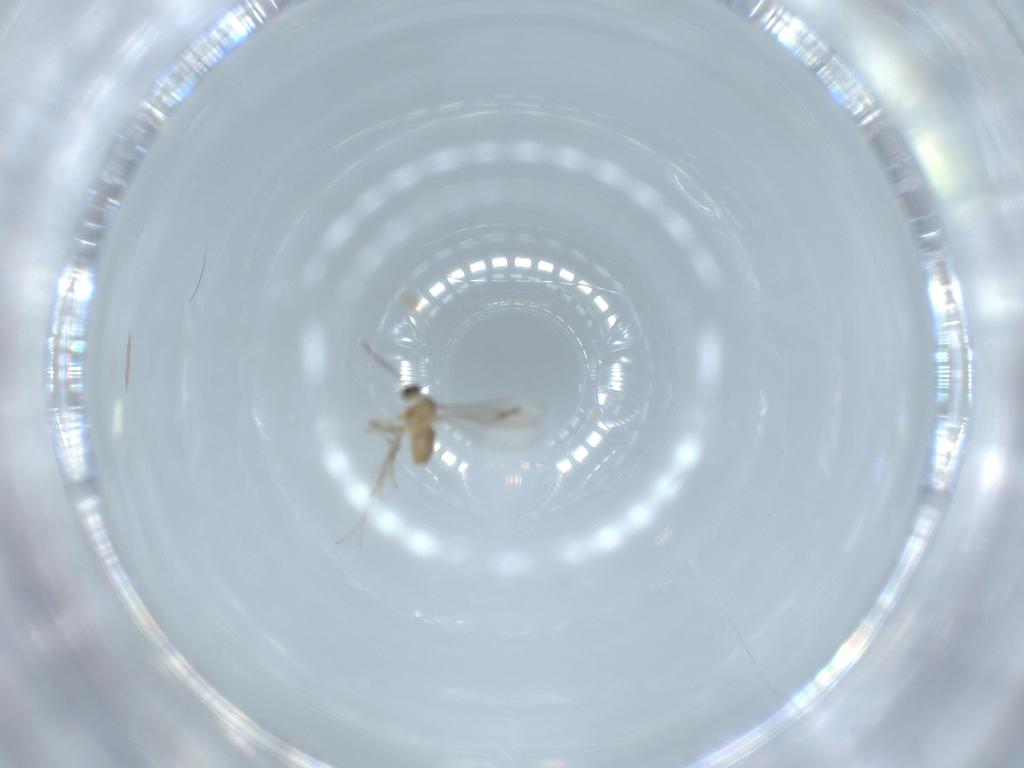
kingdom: Animalia
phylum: Arthropoda
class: Insecta
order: Diptera
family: Cecidomyiidae
